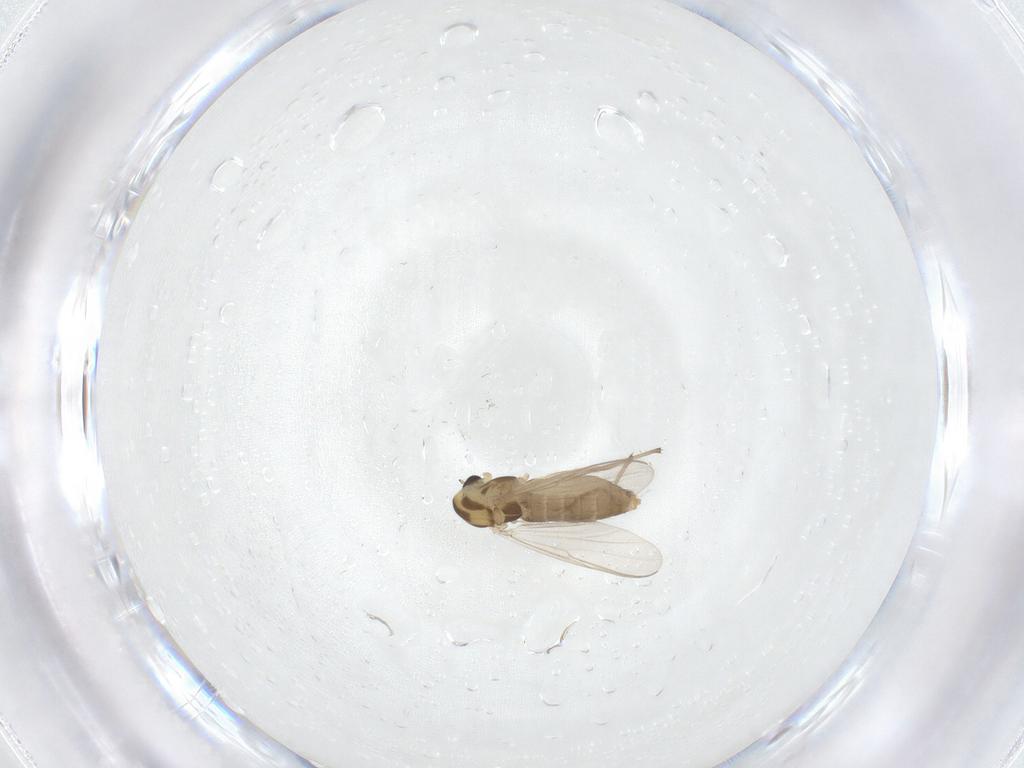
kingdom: Animalia
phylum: Arthropoda
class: Insecta
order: Diptera
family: Chironomidae
